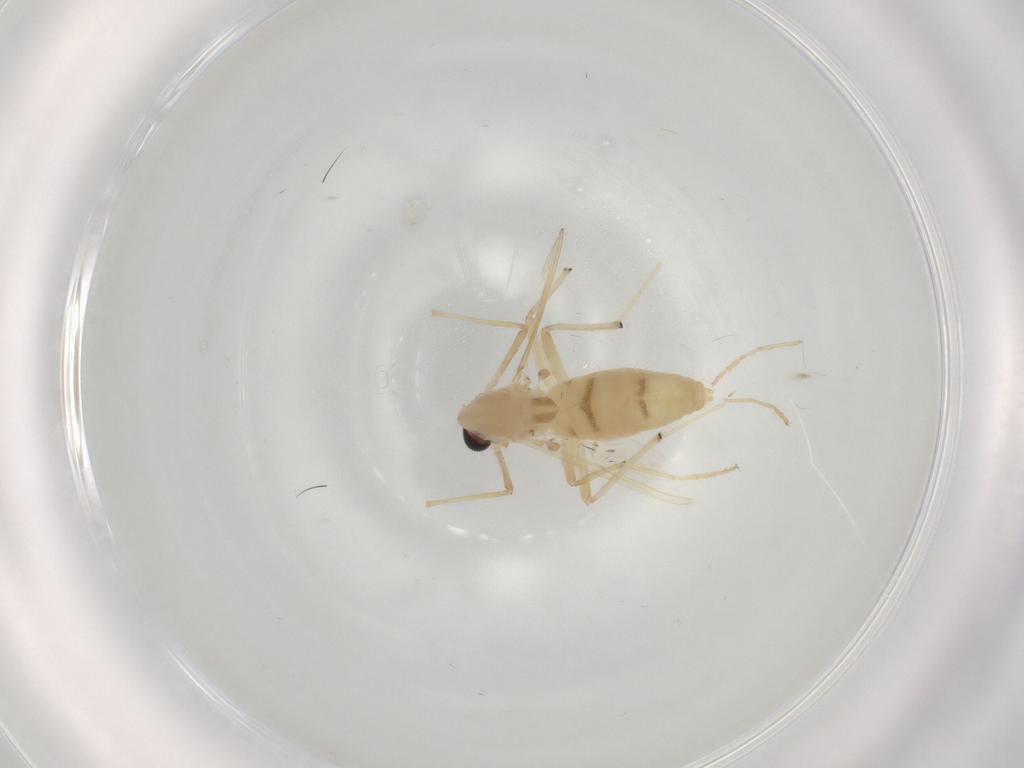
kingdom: Animalia
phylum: Arthropoda
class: Insecta
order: Diptera
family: Chironomidae
